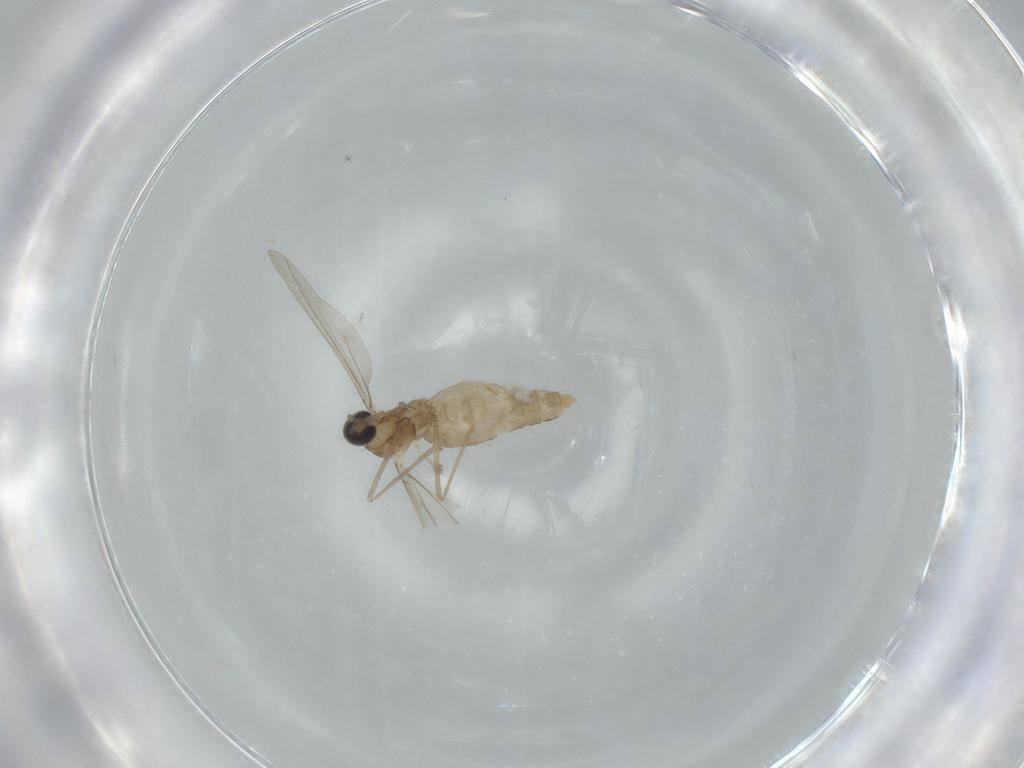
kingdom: Animalia
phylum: Arthropoda
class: Insecta
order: Diptera
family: Cecidomyiidae
